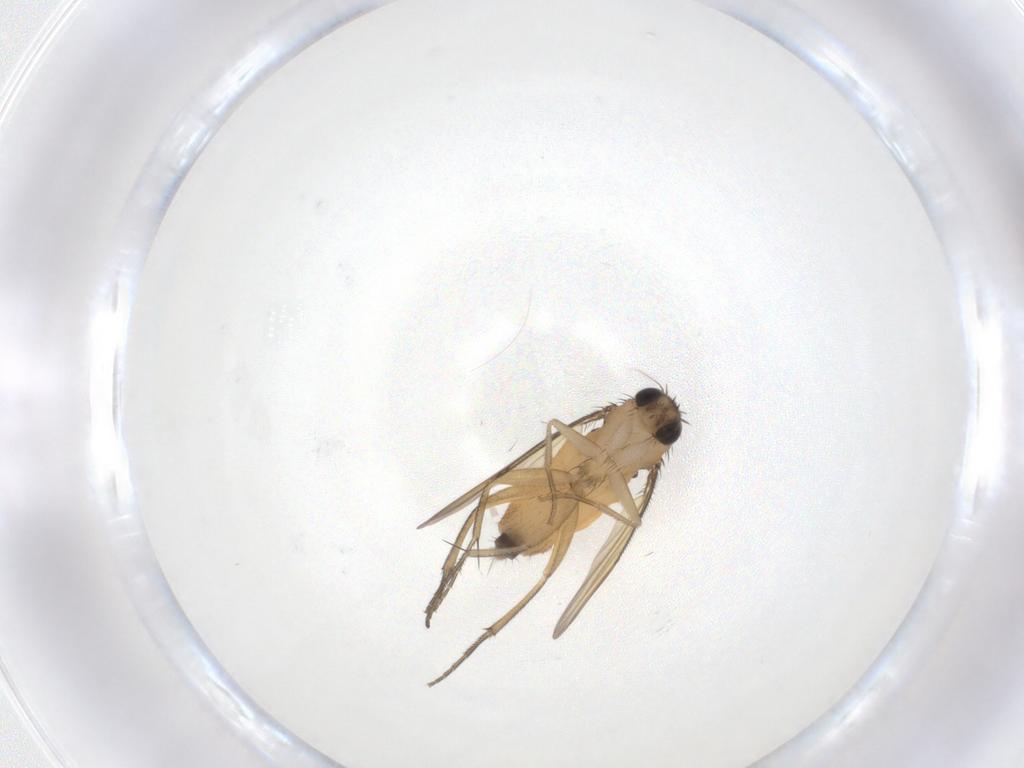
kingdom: Animalia
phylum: Arthropoda
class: Insecta
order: Diptera
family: Phoridae
